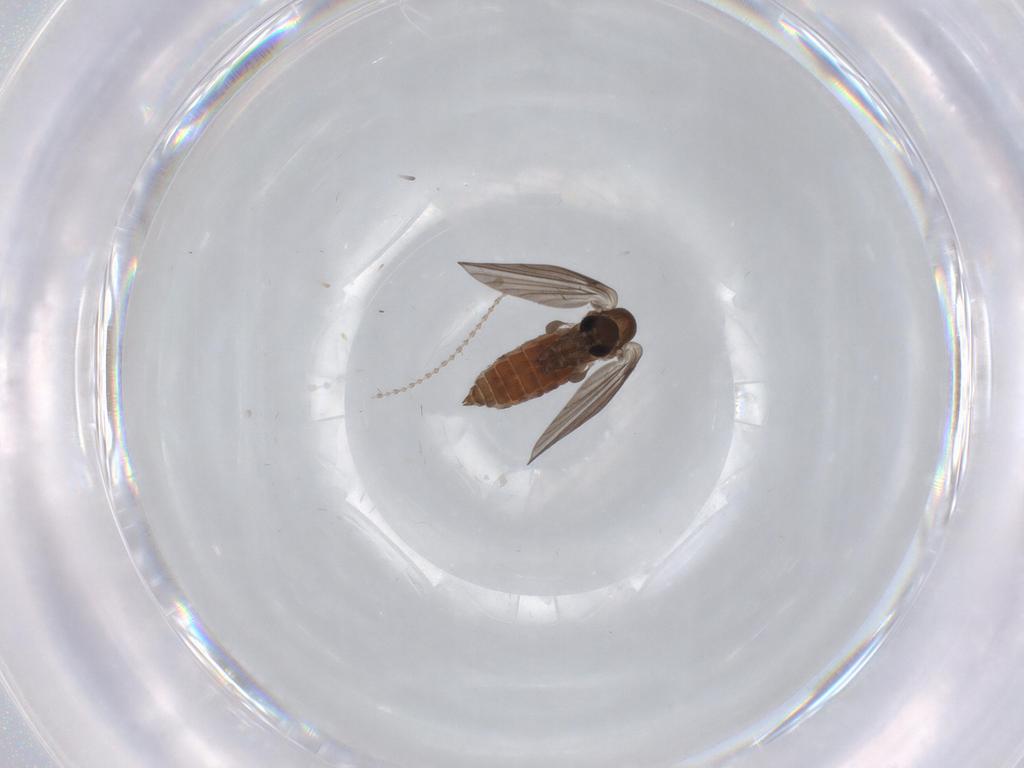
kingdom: Animalia
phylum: Arthropoda
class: Insecta
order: Diptera
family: Cecidomyiidae
